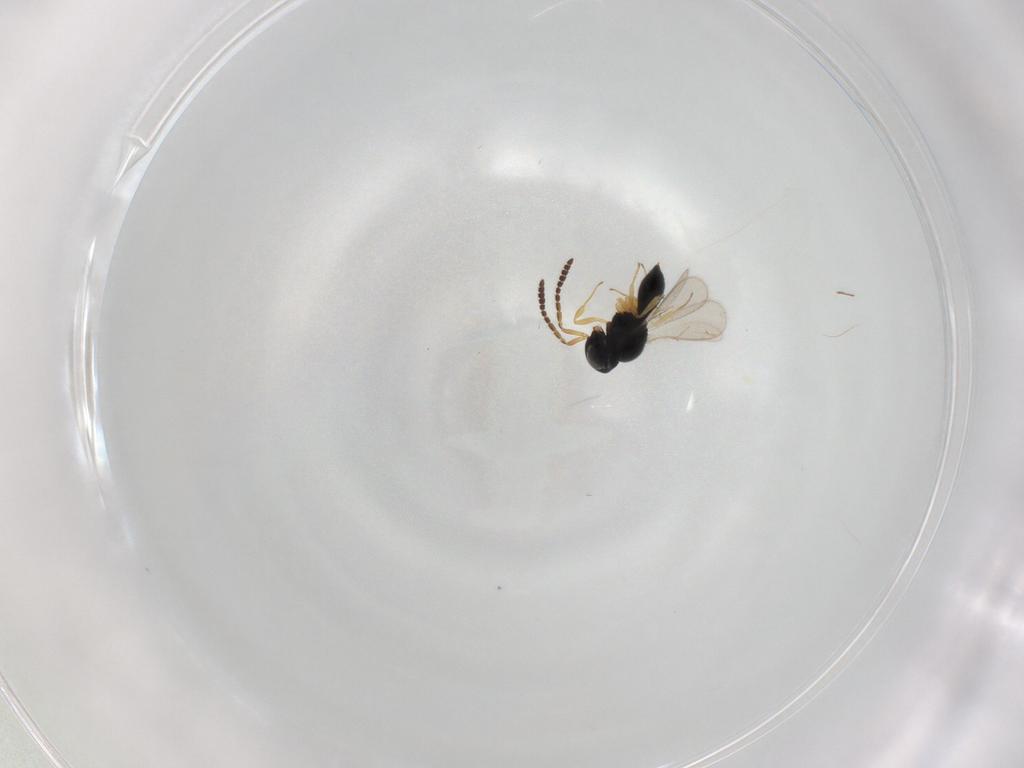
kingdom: Animalia
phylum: Arthropoda
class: Insecta
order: Hymenoptera
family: Scelionidae
